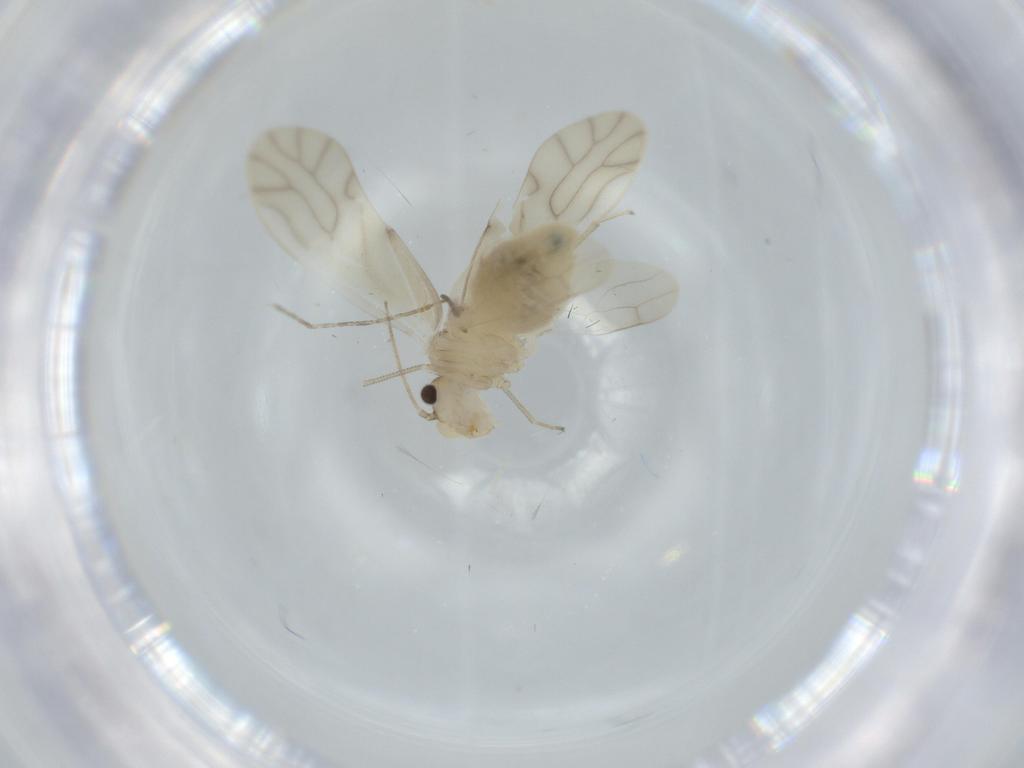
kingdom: Animalia
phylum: Arthropoda
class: Insecta
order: Psocodea
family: Caeciliusidae
